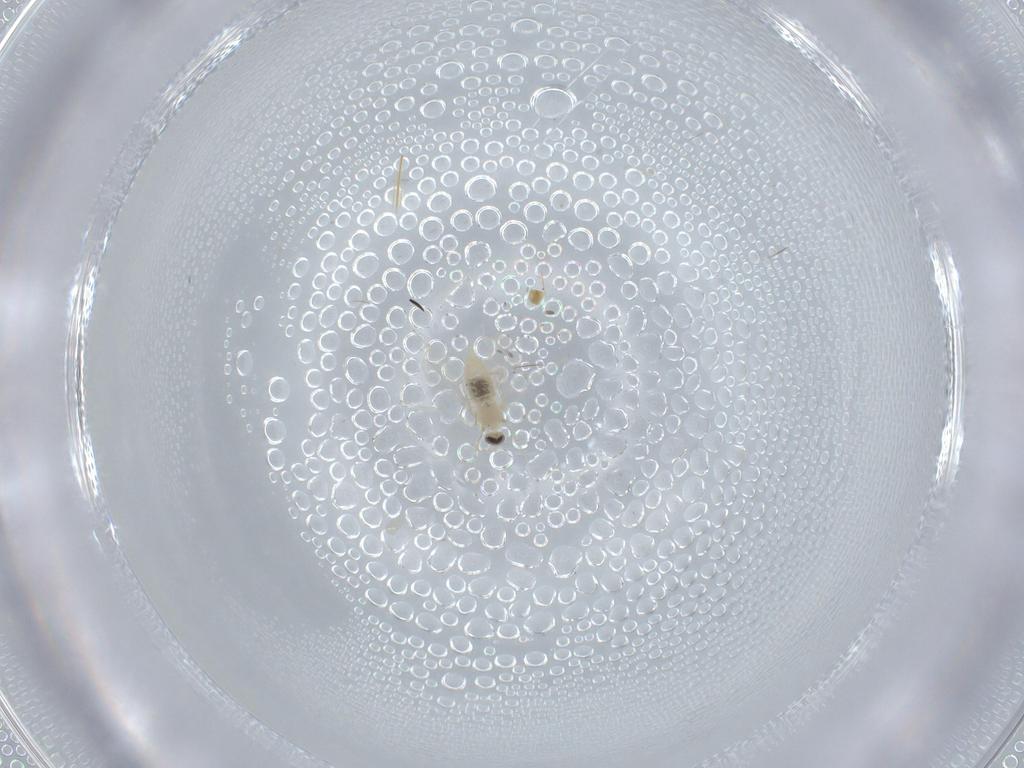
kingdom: Animalia
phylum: Arthropoda
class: Insecta
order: Diptera
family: Cecidomyiidae
